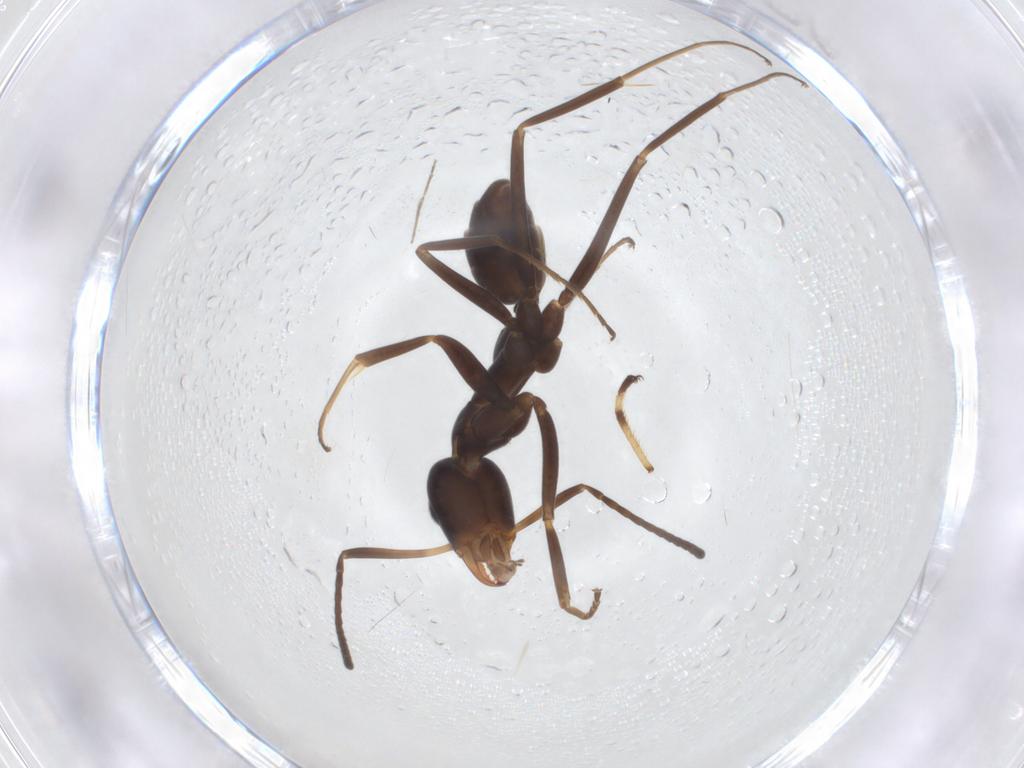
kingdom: Animalia
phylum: Arthropoda
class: Insecta
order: Hymenoptera
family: Formicidae
